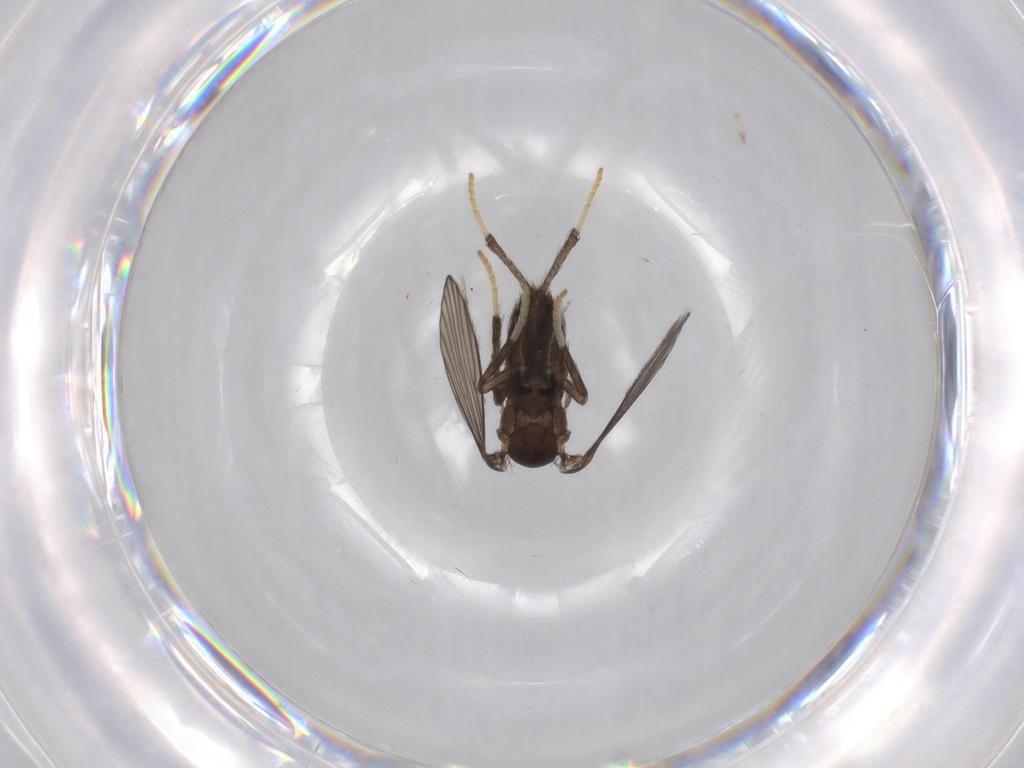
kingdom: Animalia
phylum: Arthropoda
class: Insecta
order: Diptera
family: Psychodidae
